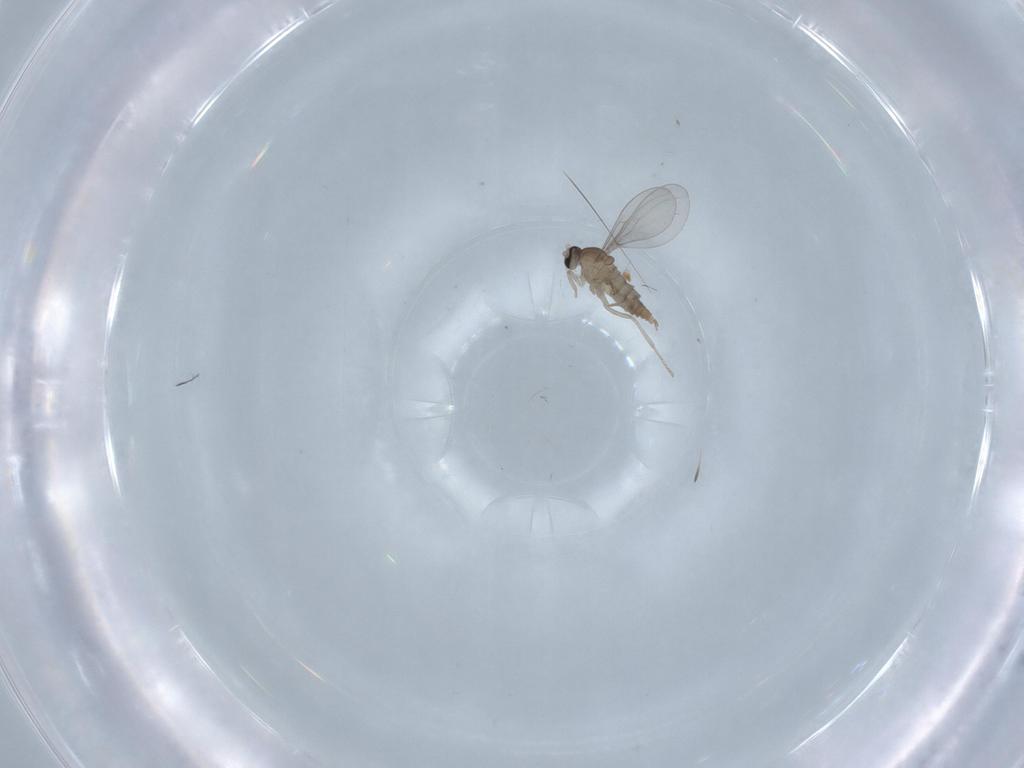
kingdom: Animalia
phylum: Arthropoda
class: Insecta
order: Diptera
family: Cecidomyiidae
